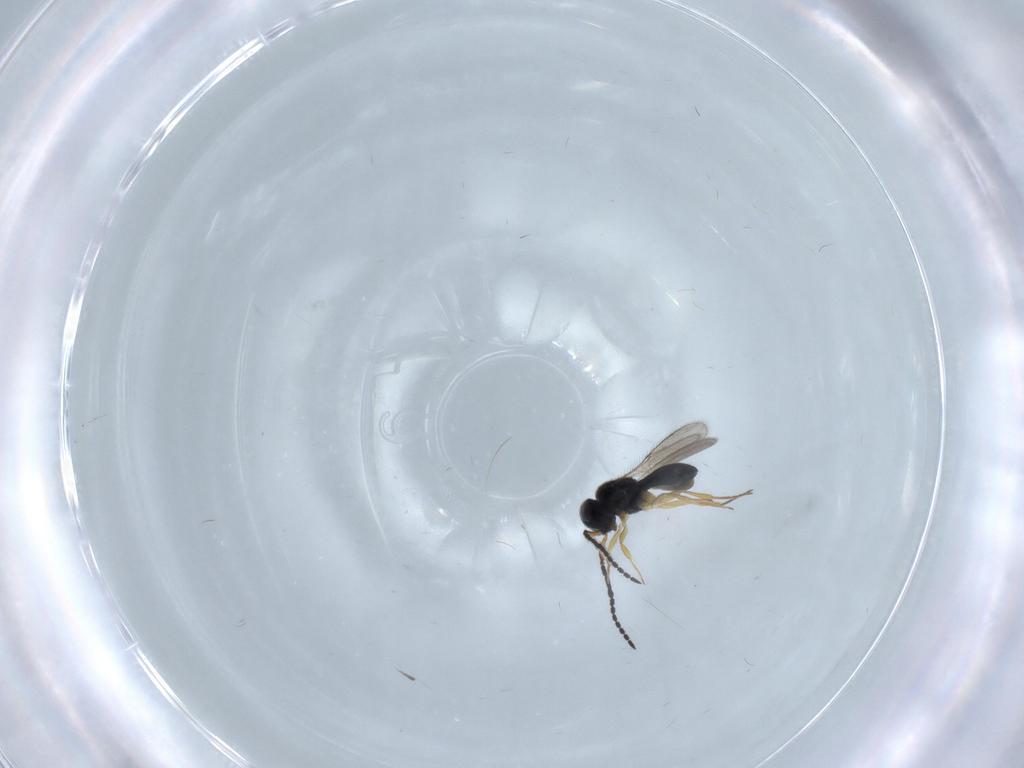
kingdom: Animalia
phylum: Arthropoda
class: Insecta
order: Hymenoptera
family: Scelionidae
